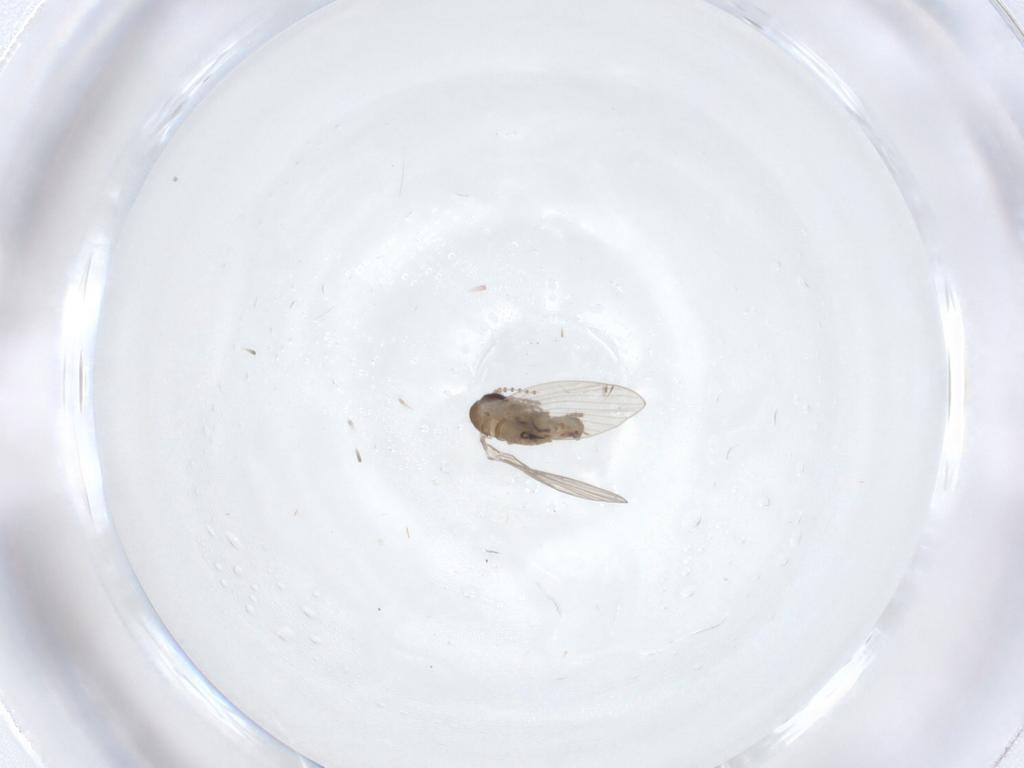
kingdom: Animalia
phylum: Arthropoda
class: Insecta
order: Diptera
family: Psychodidae
